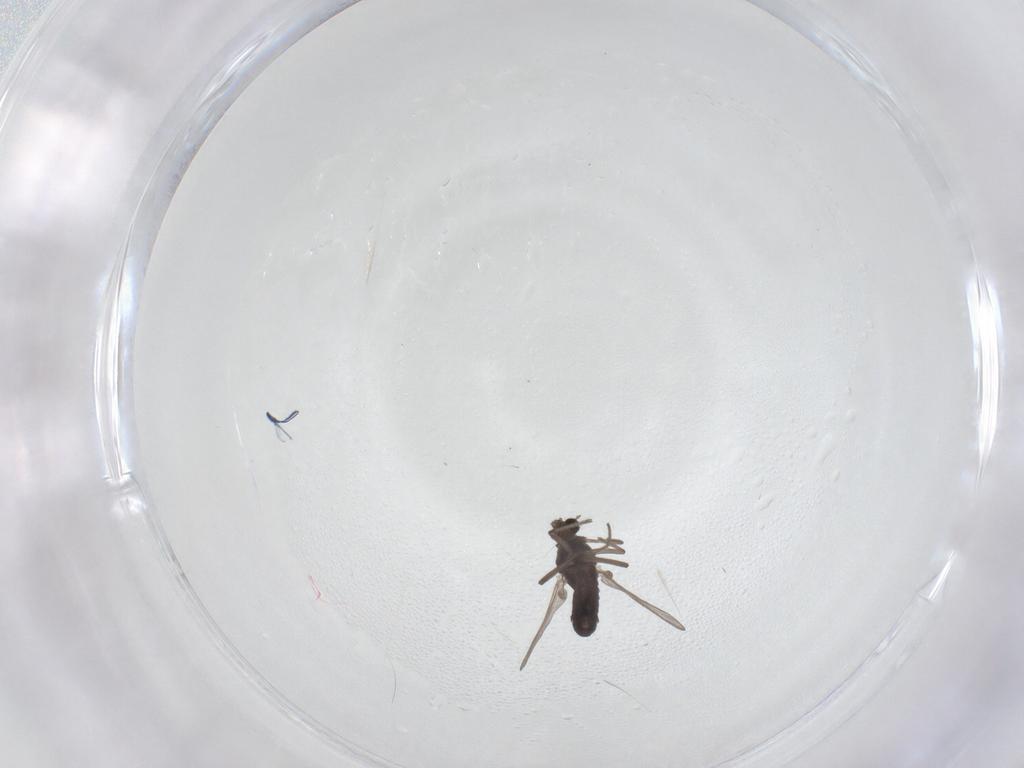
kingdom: Animalia
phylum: Arthropoda
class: Insecta
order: Diptera
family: Chironomidae
